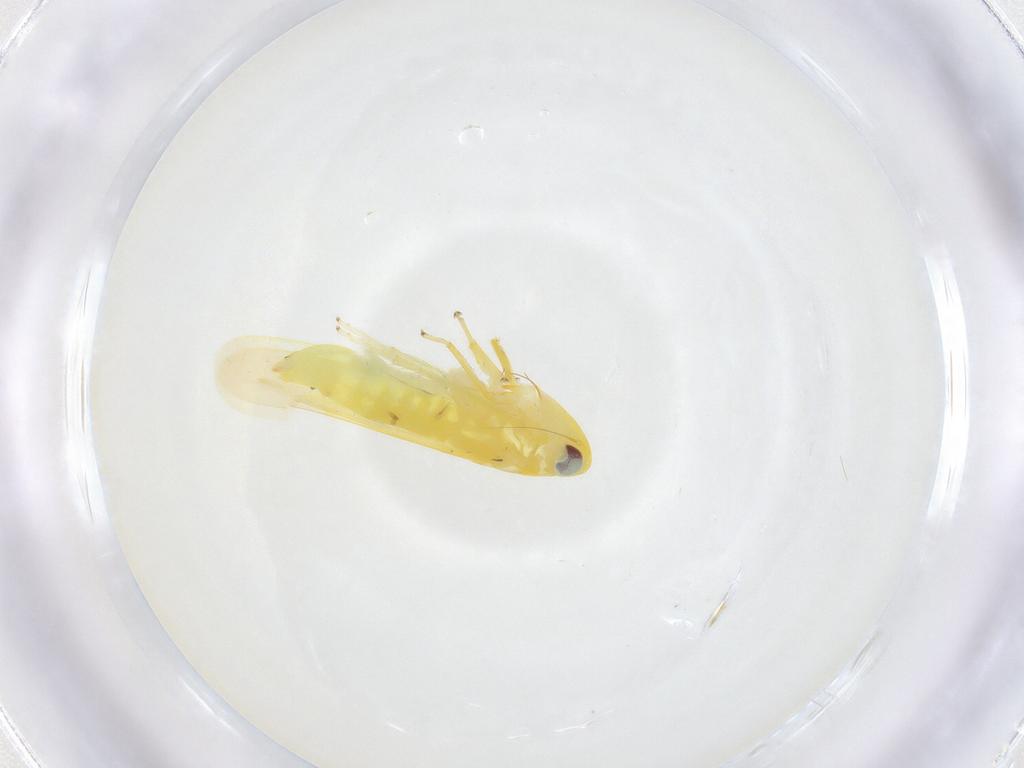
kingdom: Animalia
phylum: Arthropoda
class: Insecta
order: Hemiptera
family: Cicadellidae
